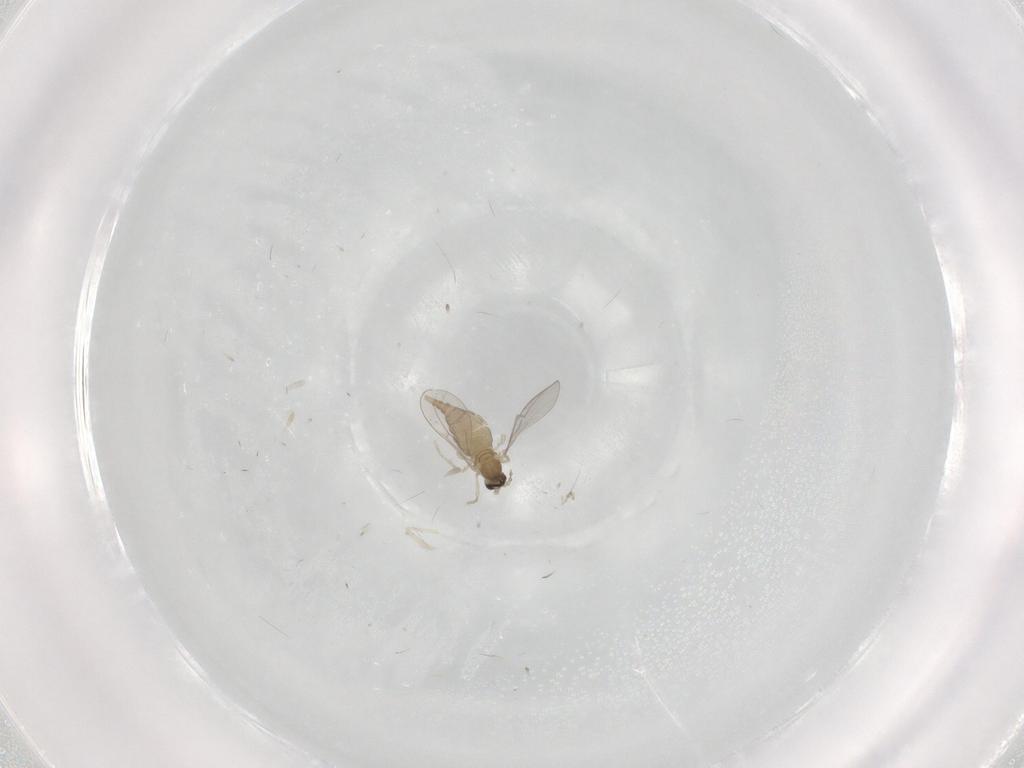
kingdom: Animalia
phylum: Arthropoda
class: Insecta
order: Diptera
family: Cecidomyiidae
